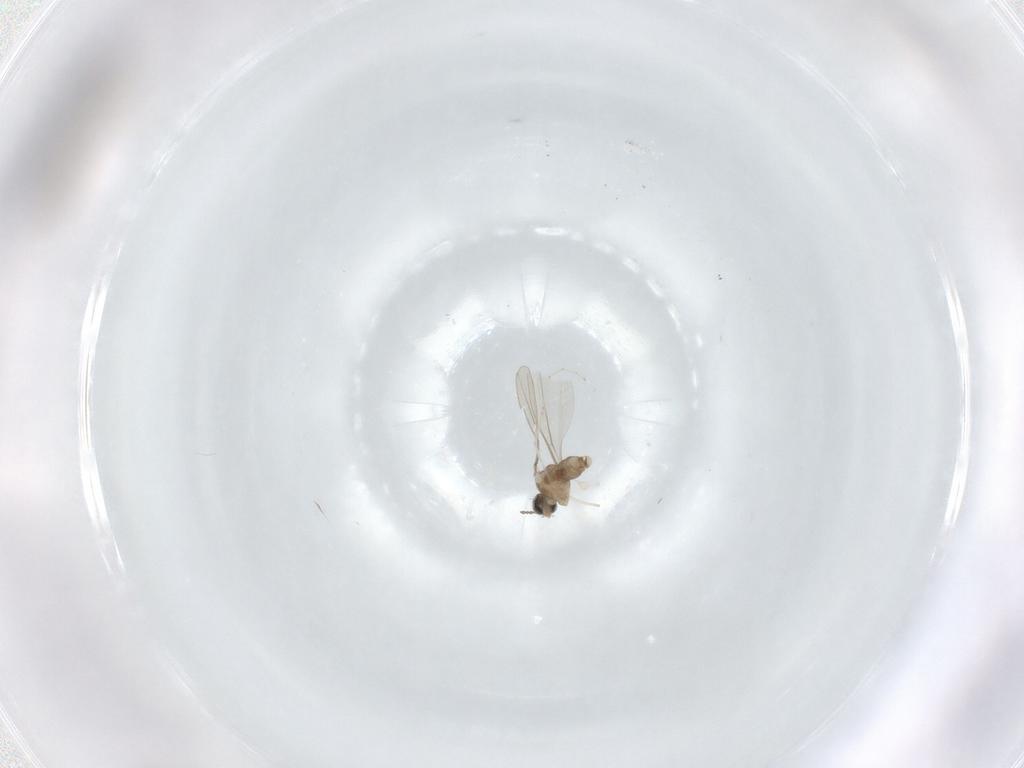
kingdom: Animalia
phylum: Arthropoda
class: Insecta
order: Diptera
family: Cecidomyiidae
